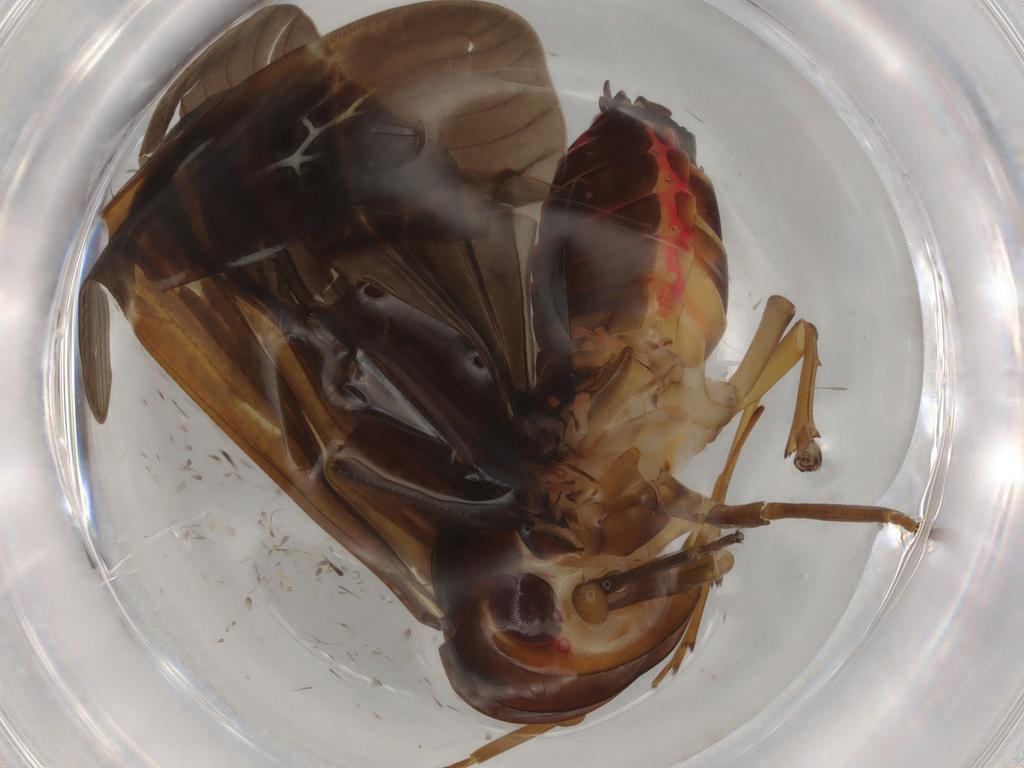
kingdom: Animalia
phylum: Arthropoda
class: Insecta
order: Hemiptera
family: Achilidae
